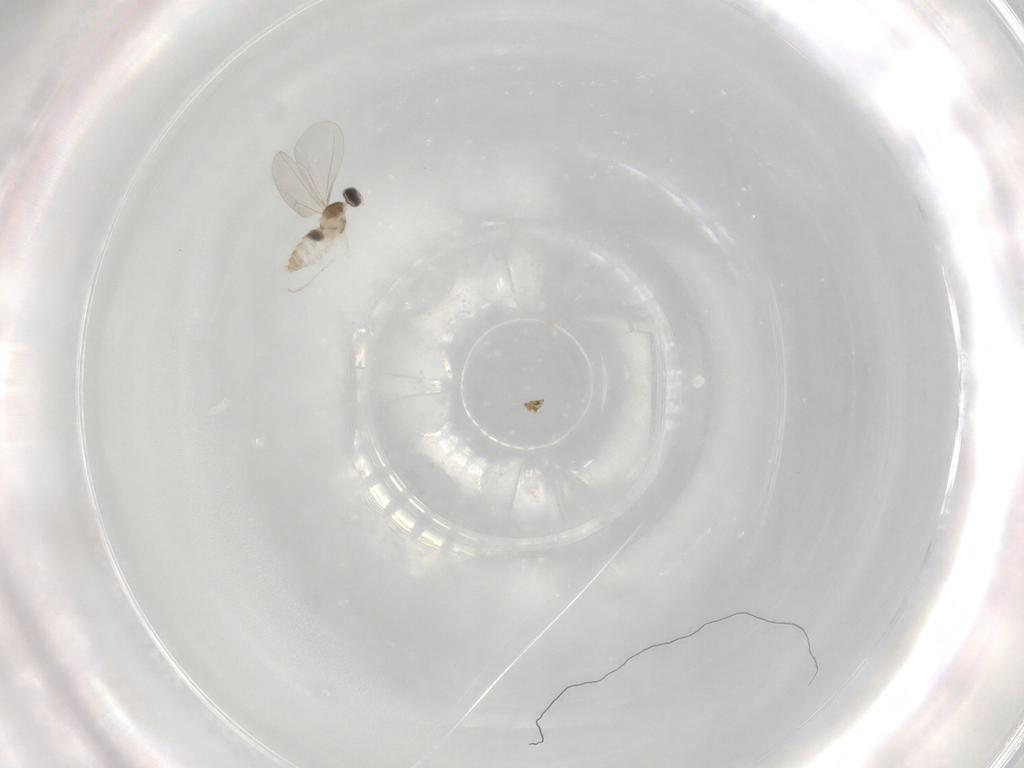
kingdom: Animalia
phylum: Arthropoda
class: Insecta
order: Diptera
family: Cecidomyiidae
